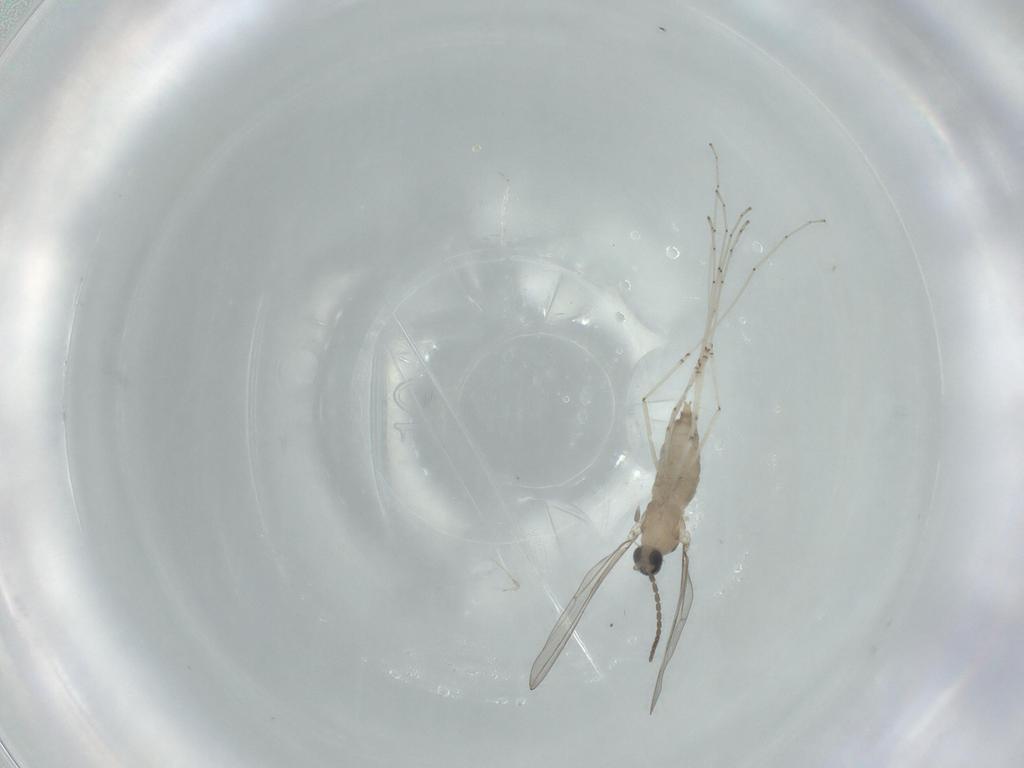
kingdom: Animalia
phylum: Arthropoda
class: Insecta
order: Diptera
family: Cecidomyiidae
